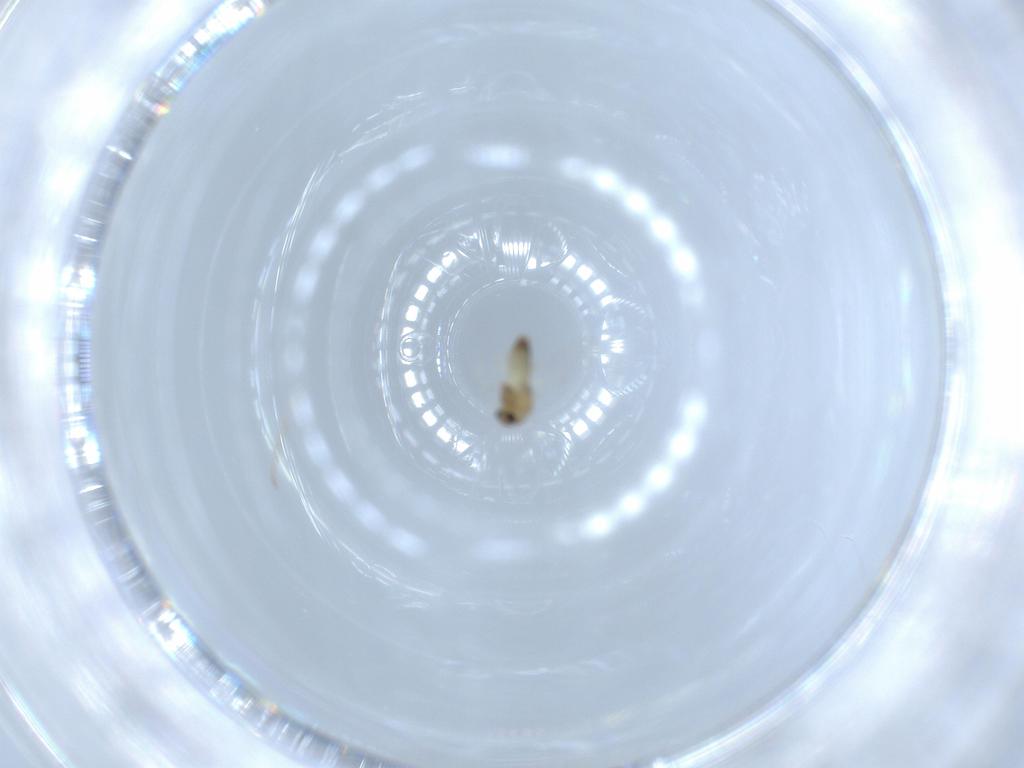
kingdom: Animalia
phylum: Arthropoda
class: Insecta
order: Diptera
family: Chironomidae
